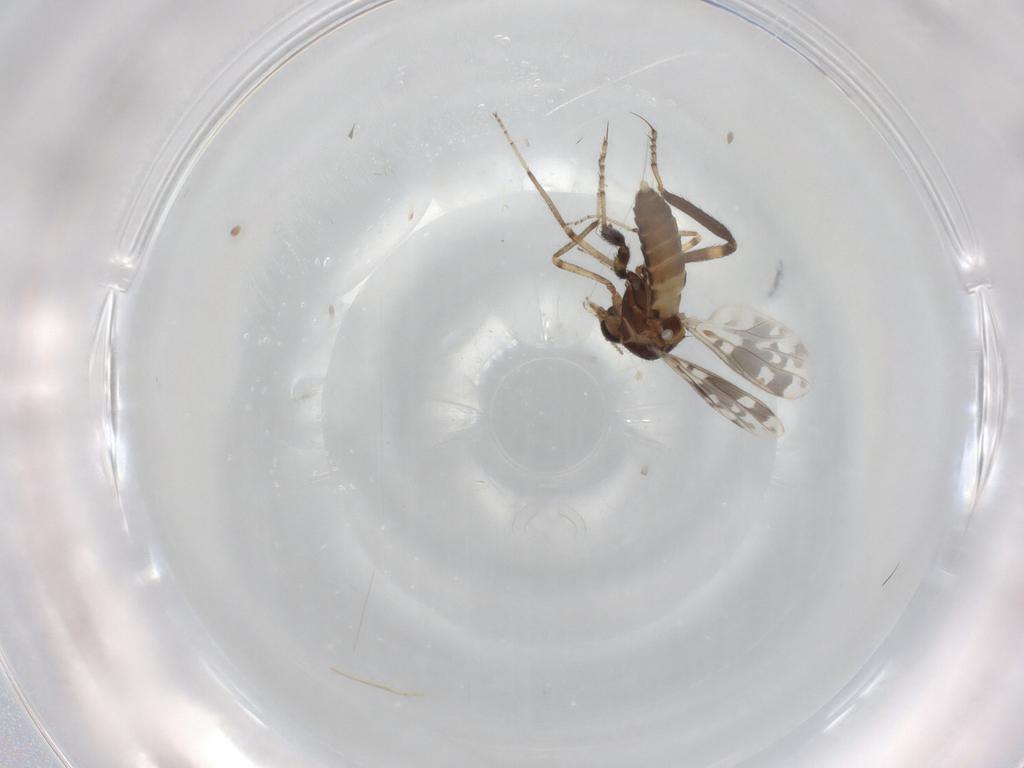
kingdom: Animalia
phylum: Arthropoda
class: Insecta
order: Diptera
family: Ceratopogonidae
